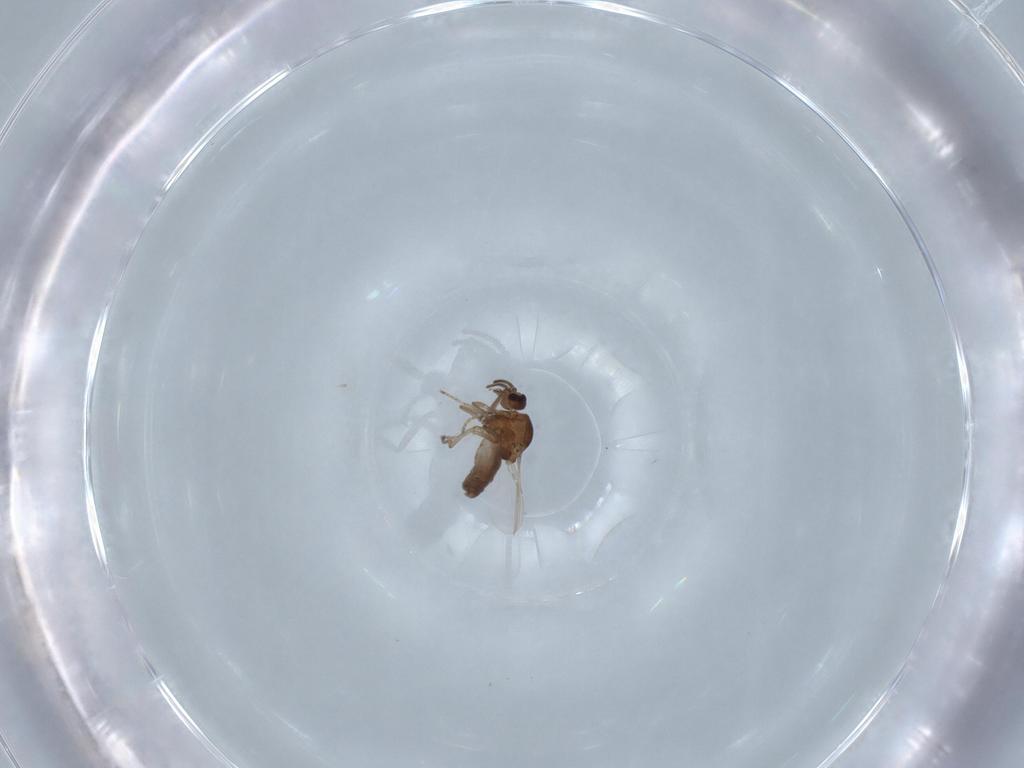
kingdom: Animalia
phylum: Arthropoda
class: Insecta
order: Diptera
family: Ceratopogonidae
